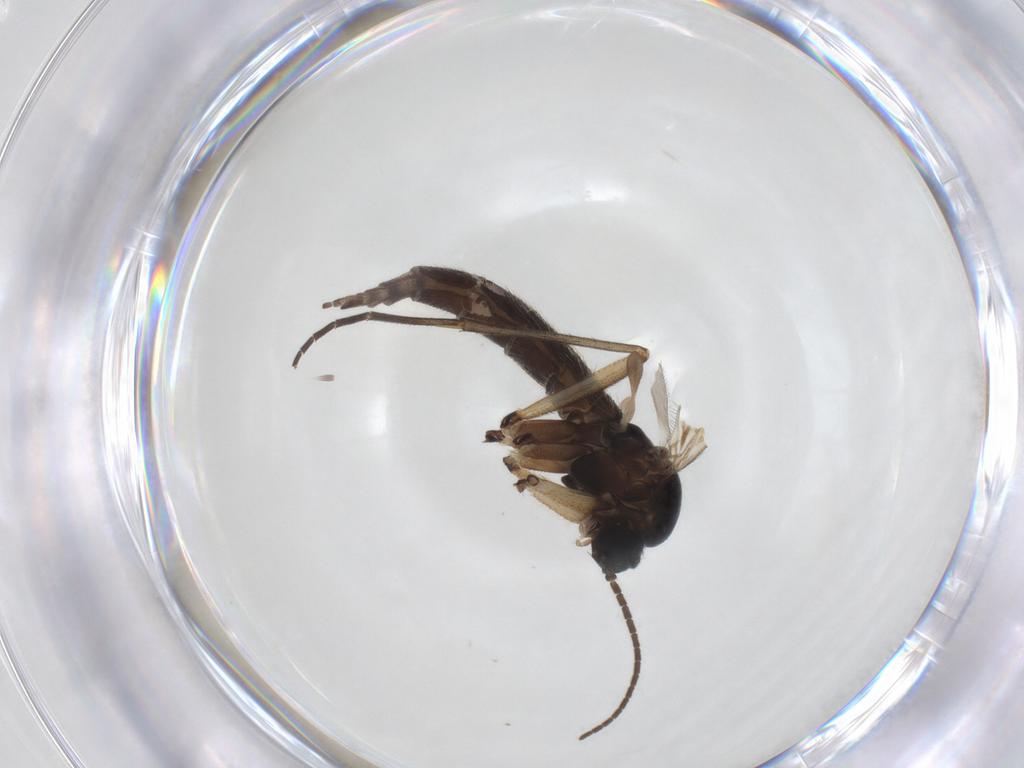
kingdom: Animalia
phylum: Arthropoda
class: Insecta
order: Diptera
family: Sciaridae
